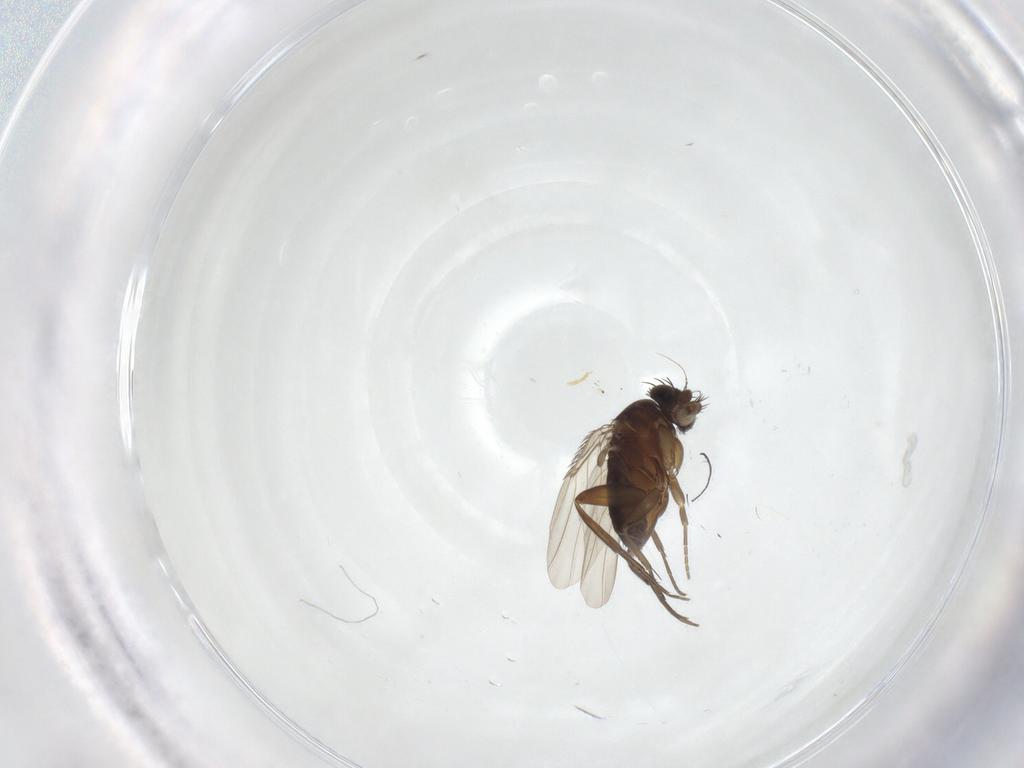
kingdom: Animalia
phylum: Arthropoda
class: Insecta
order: Diptera
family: Phoridae
